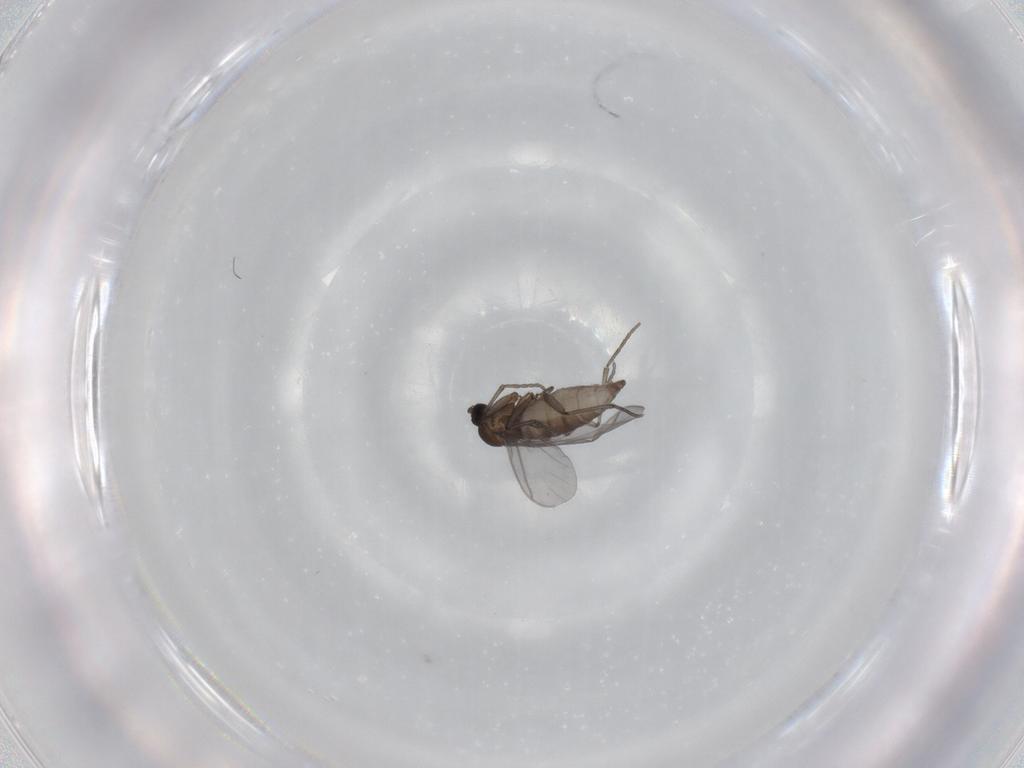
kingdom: Animalia
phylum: Arthropoda
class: Insecta
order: Diptera
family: Sciaridae
